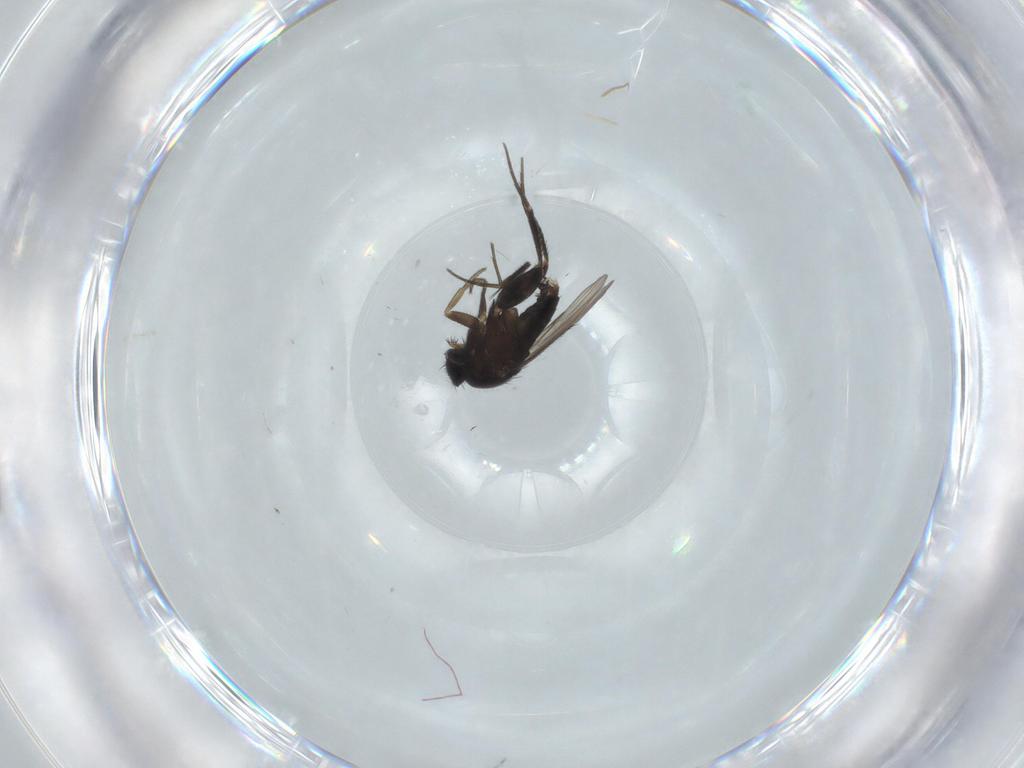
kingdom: Animalia
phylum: Arthropoda
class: Insecta
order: Diptera
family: Phoridae
